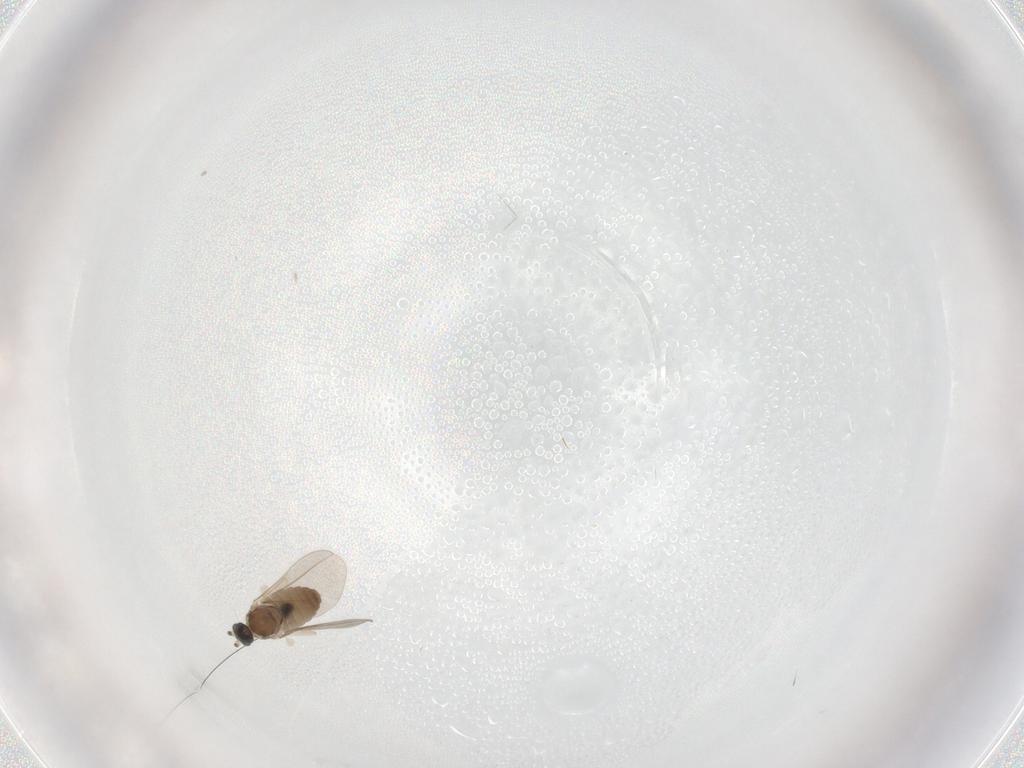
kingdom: Animalia
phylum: Arthropoda
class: Insecta
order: Diptera
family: Cecidomyiidae
